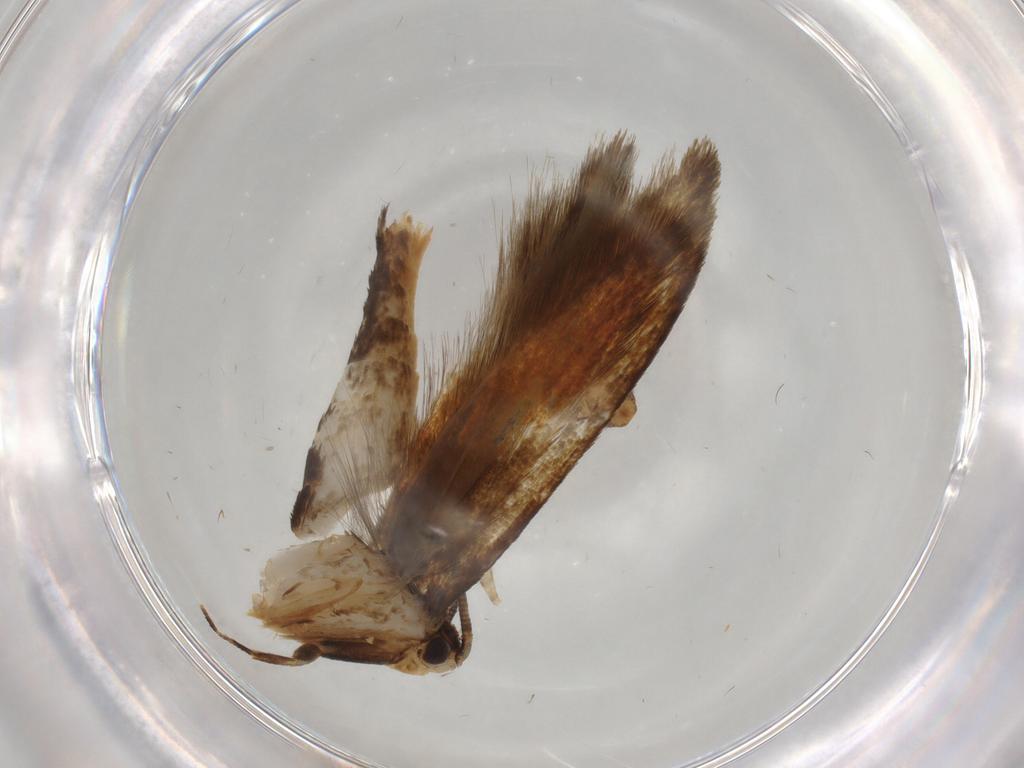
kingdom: Animalia
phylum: Arthropoda
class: Insecta
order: Lepidoptera
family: Tineidae
